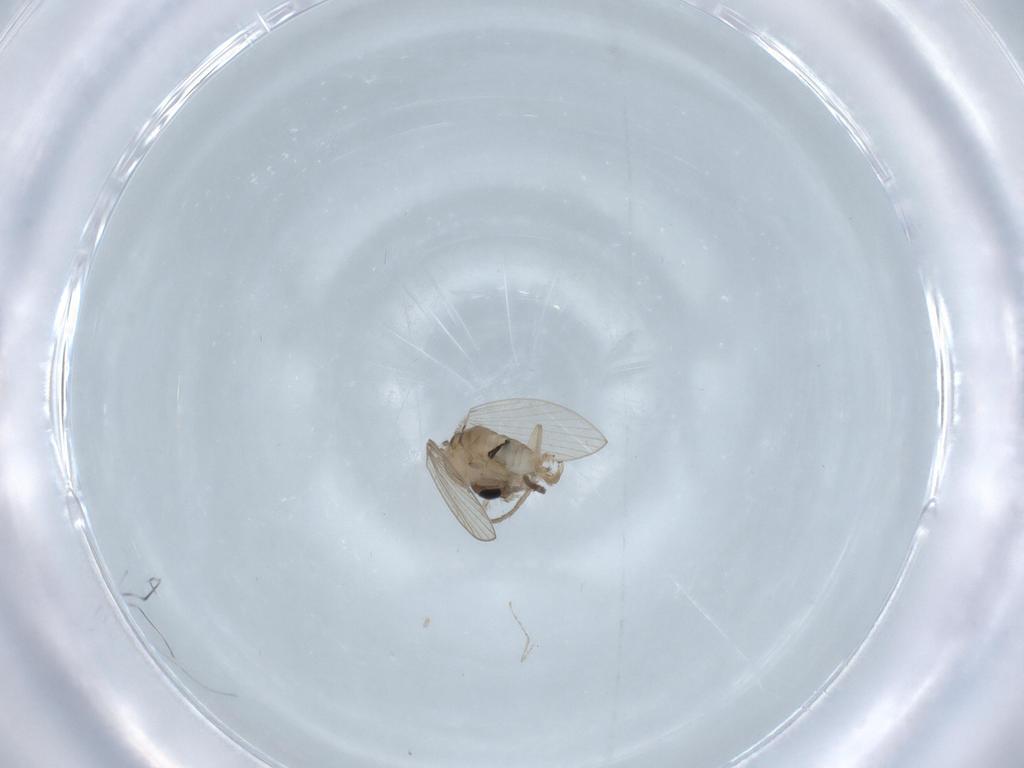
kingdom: Animalia
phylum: Arthropoda
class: Insecta
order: Diptera
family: Psychodidae
